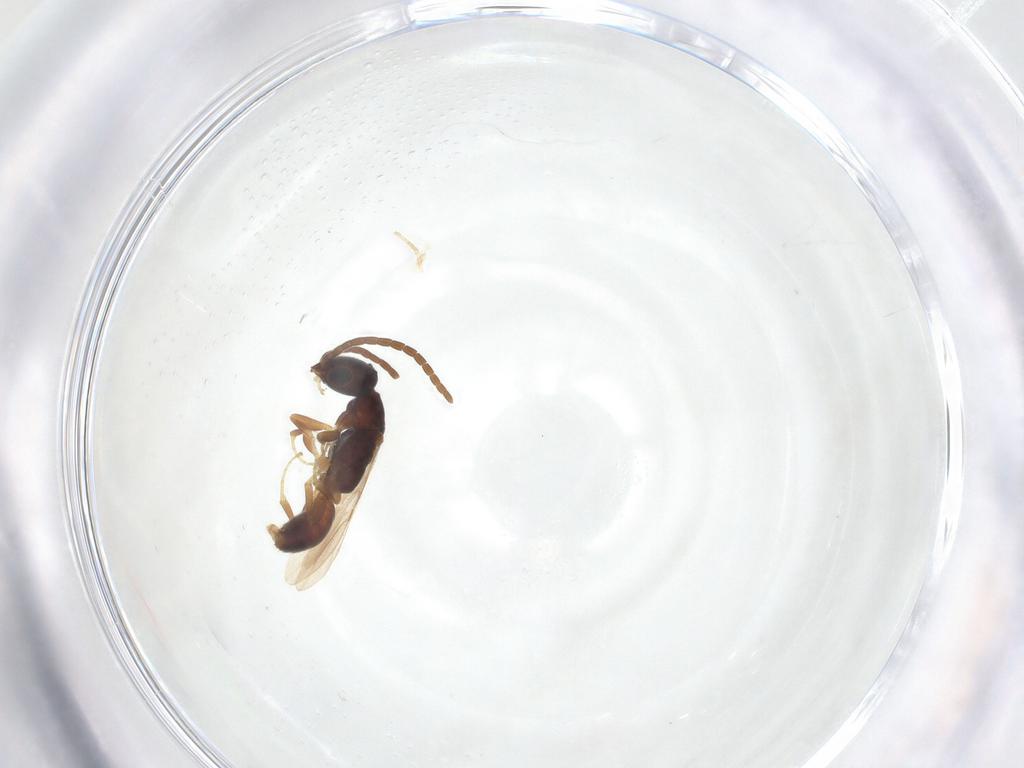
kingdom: Animalia
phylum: Arthropoda
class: Insecta
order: Hymenoptera
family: Bethylidae
